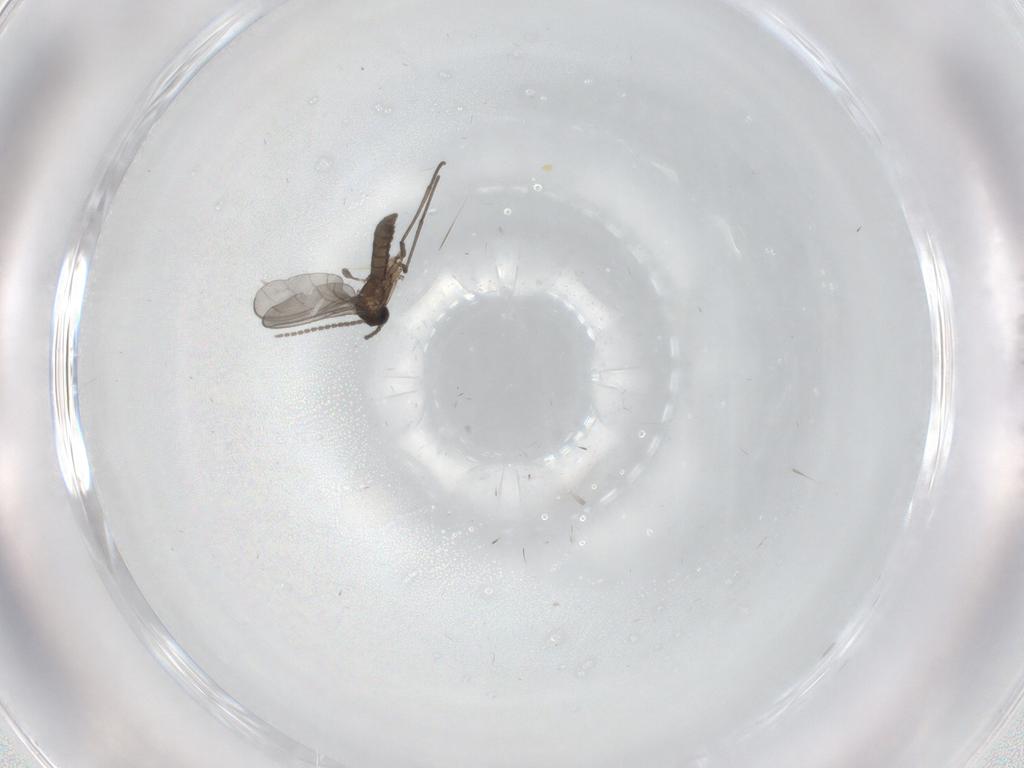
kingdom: Animalia
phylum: Arthropoda
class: Insecta
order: Diptera
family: Sciaridae
